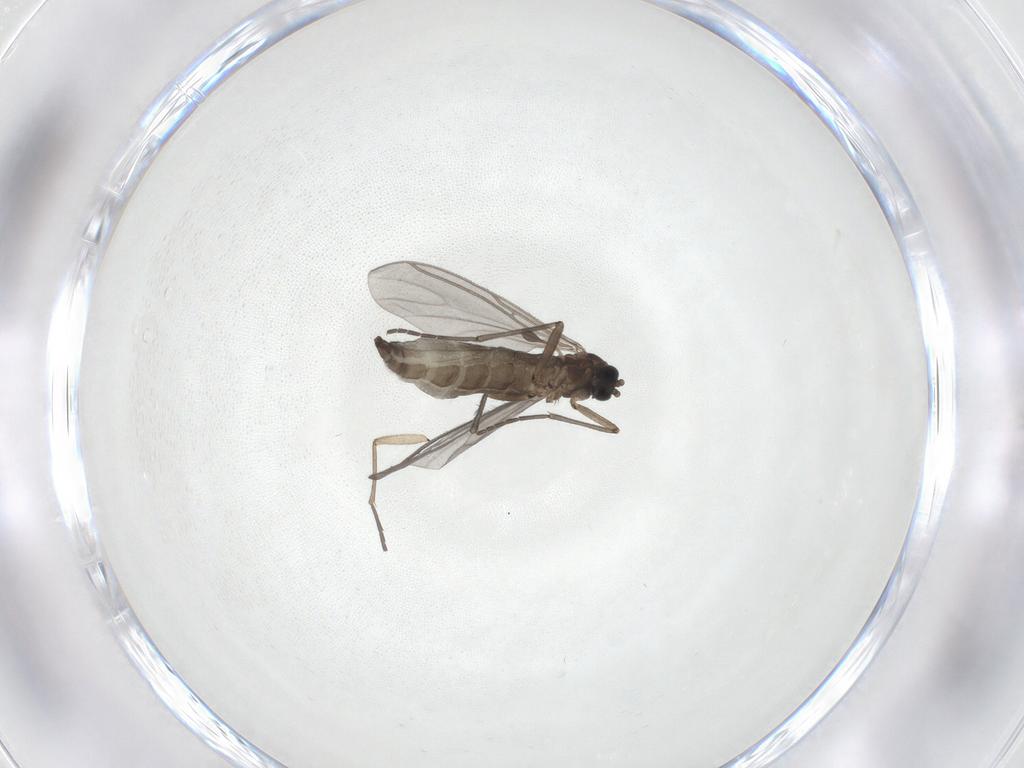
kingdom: Animalia
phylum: Arthropoda
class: Insecta
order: Diptera
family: Sciaridae
